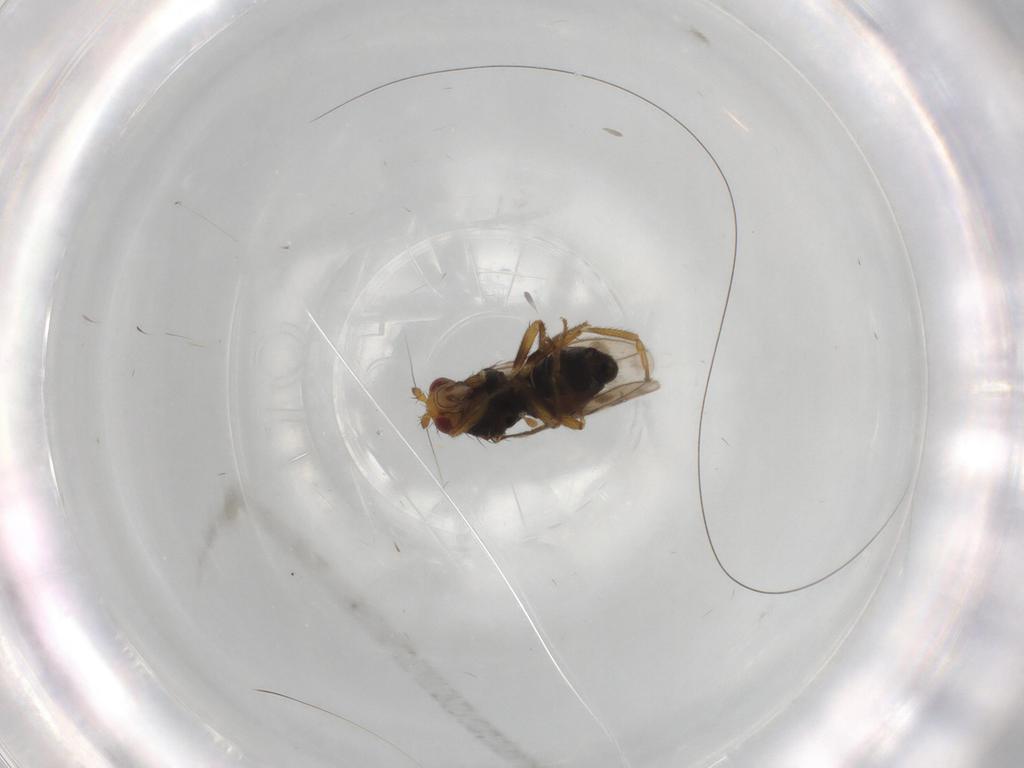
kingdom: Animalia
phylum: Arthropoda
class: Insecta
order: Diptera
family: Sphaeroceridae
